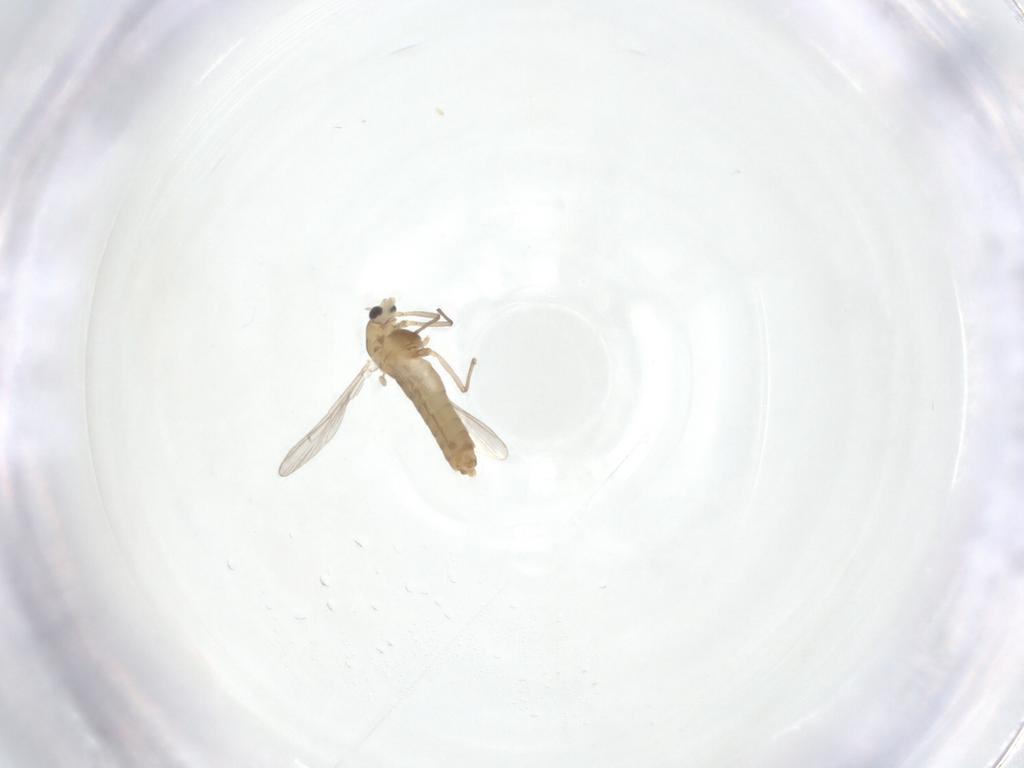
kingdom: Animalia
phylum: Arthropoda
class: Insecta
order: Diptera
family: Chironomidae
